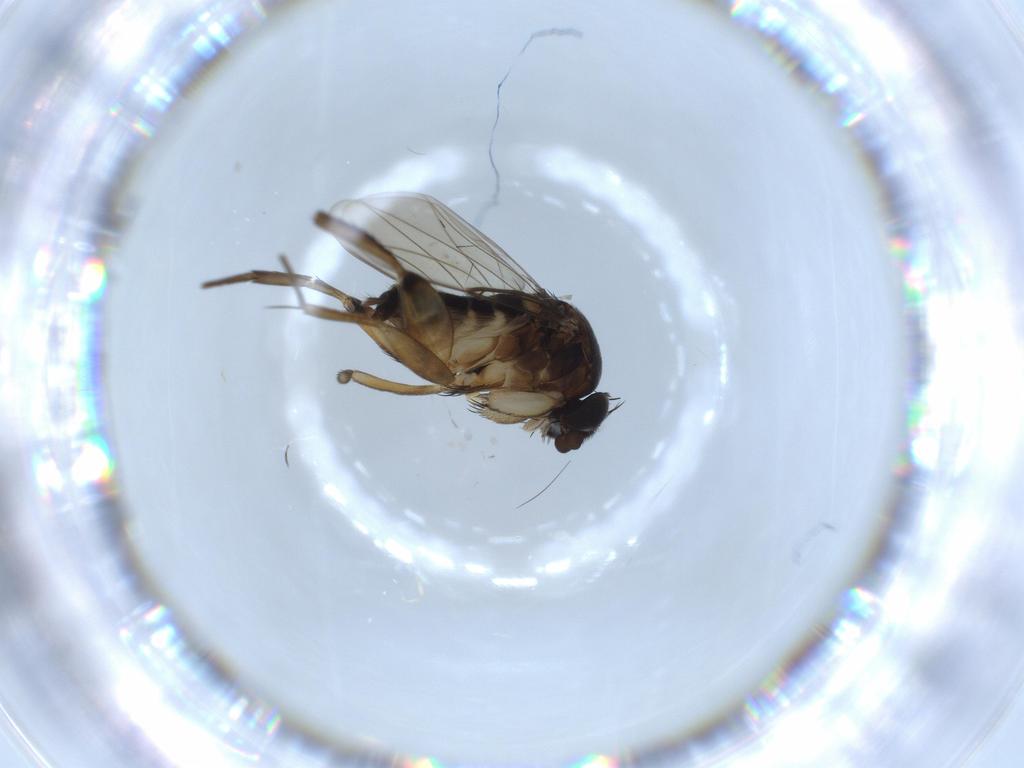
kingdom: Animalia
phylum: Arthropoda
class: Insecta
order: Diptera
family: Phoridae
